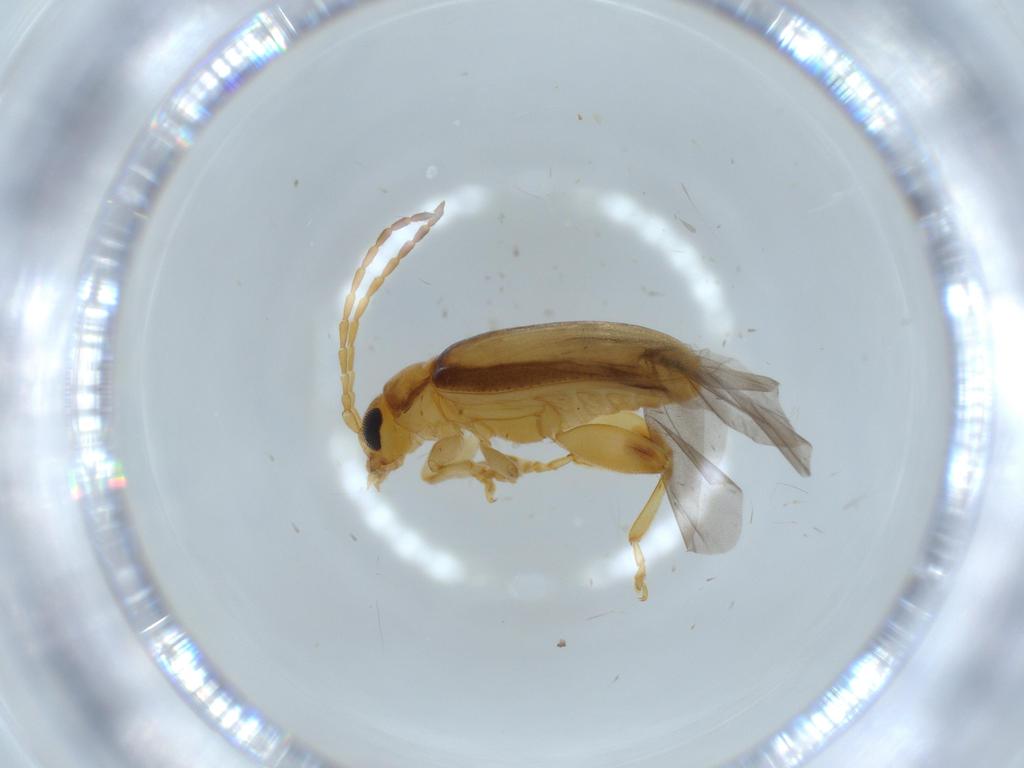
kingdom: Animalia
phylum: Arthropoda
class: Insecta
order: Coleoptera
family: Chrysomelidae
